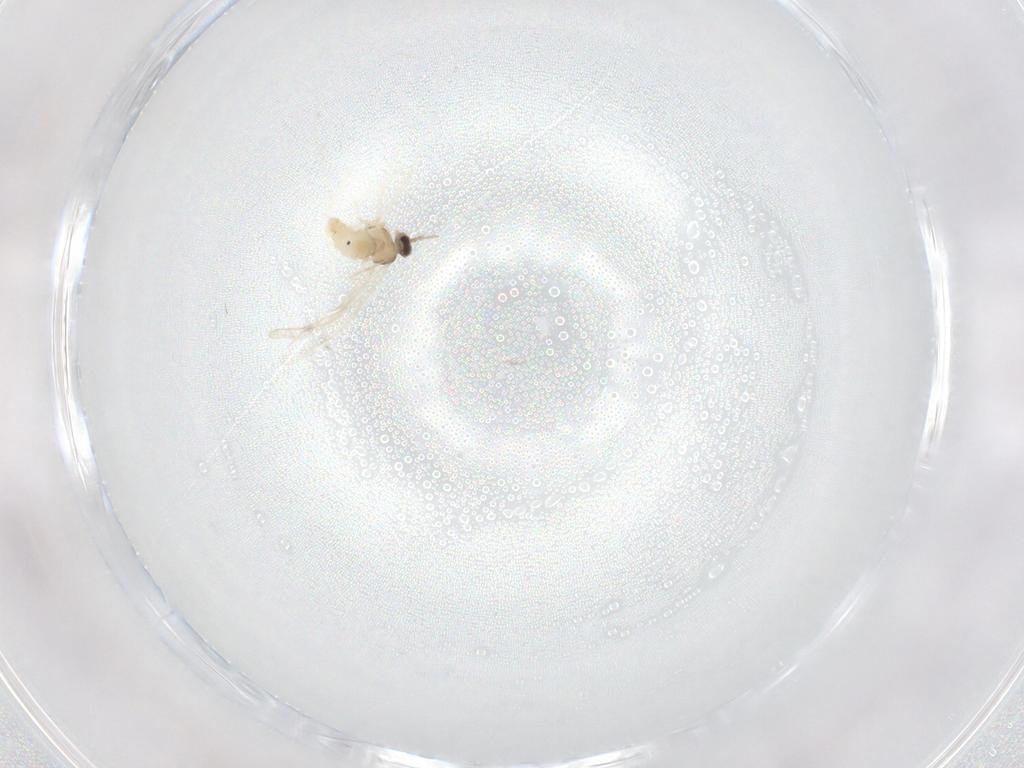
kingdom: Animalia
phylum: Arthropoda
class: Insecta
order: Diptera
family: Cecidomyiidae
